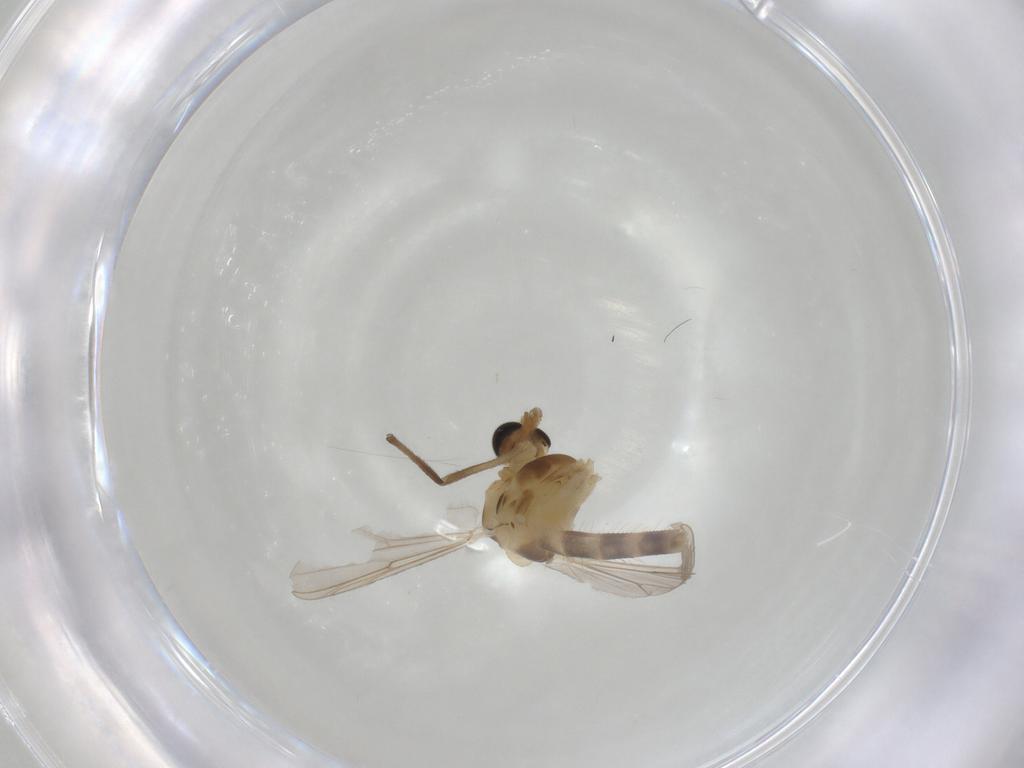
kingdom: Animalia
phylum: Arthropoda
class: Insecta
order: Diptera
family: Chironomidae
